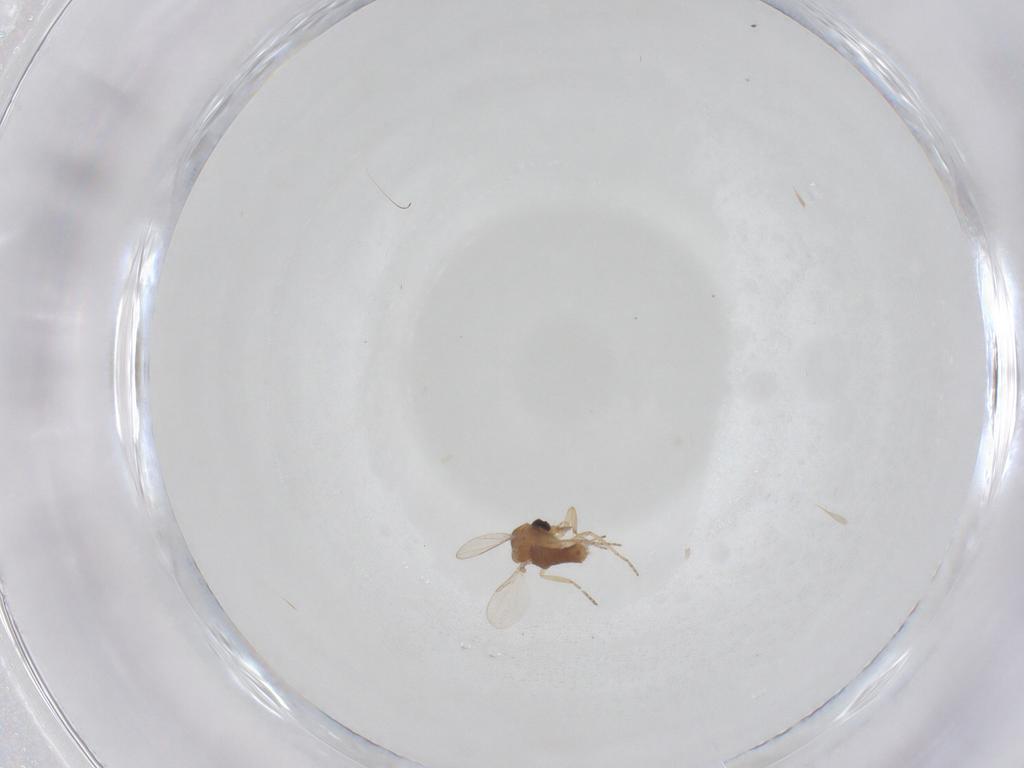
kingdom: Animalia
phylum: Arthropoda
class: Insecta
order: Diptera
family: Ceratopogonidae
